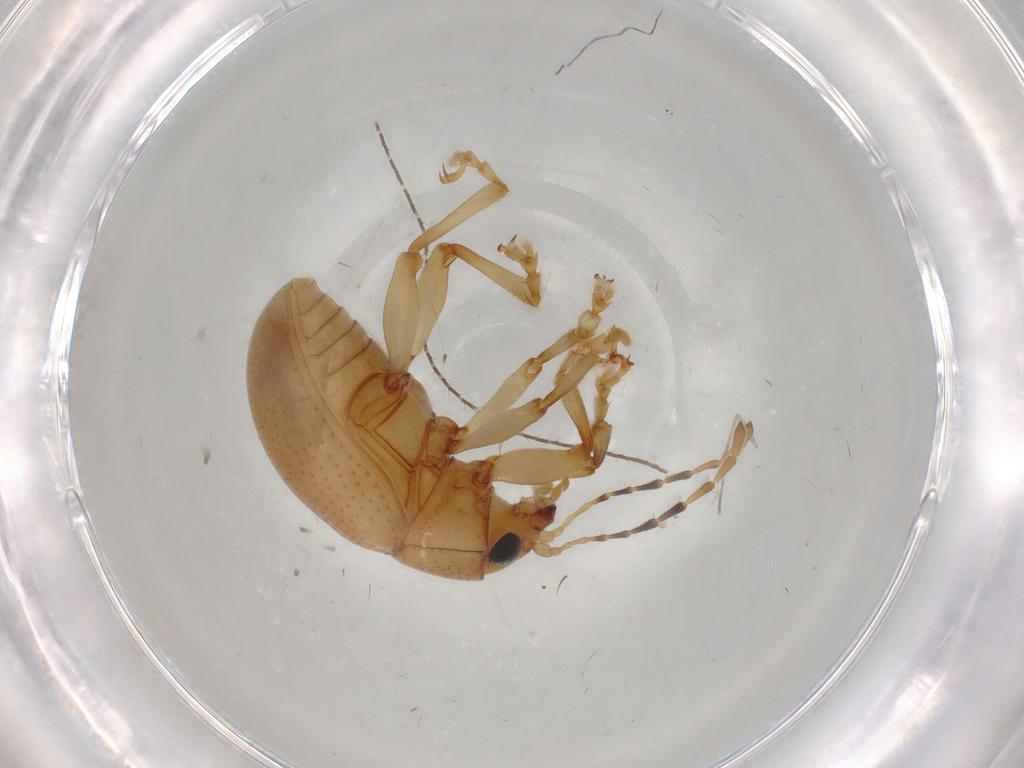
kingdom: Animalia
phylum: Arthropoda
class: Insecta
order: Coleoptera
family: Chrysomelidae
